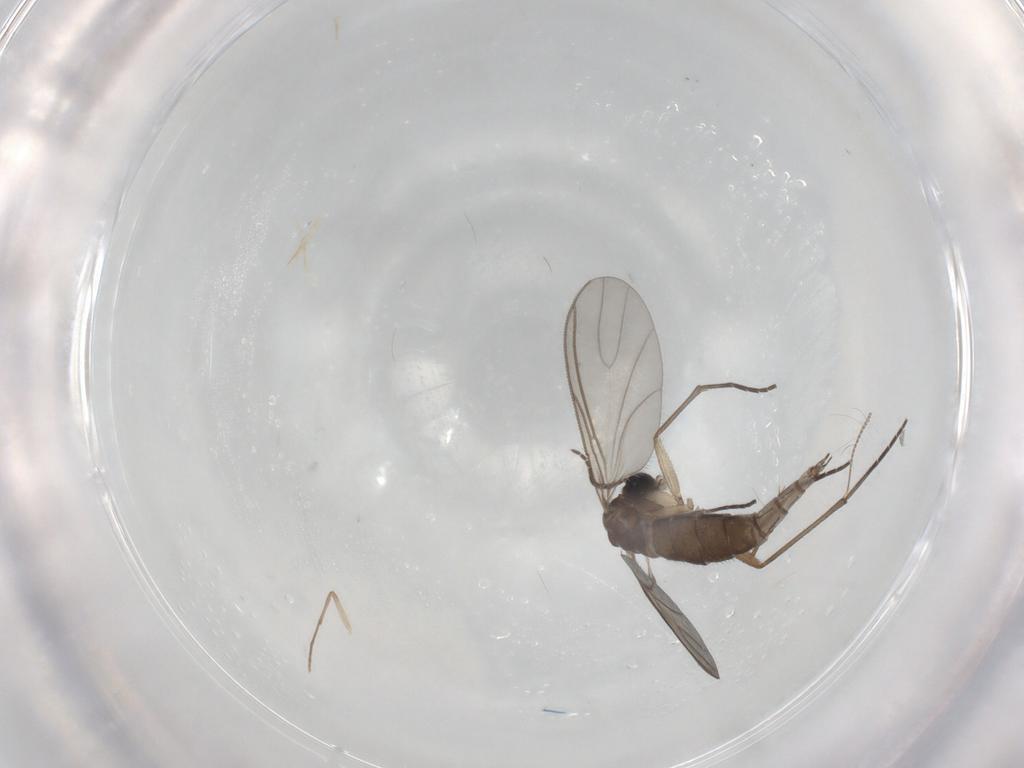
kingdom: Animalia
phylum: Arthropoda
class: Insecta
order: Diptera
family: Sciaridae
